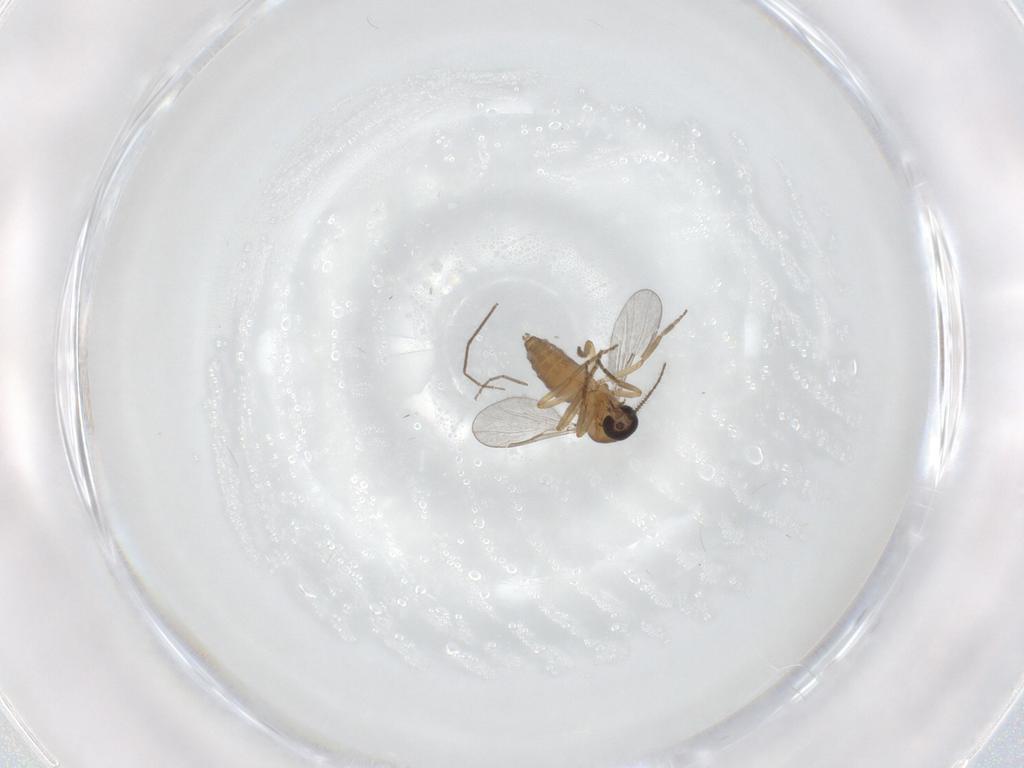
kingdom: Animalia
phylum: Arthropoda
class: Insecta
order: Diptera
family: Ceratopogonidae
